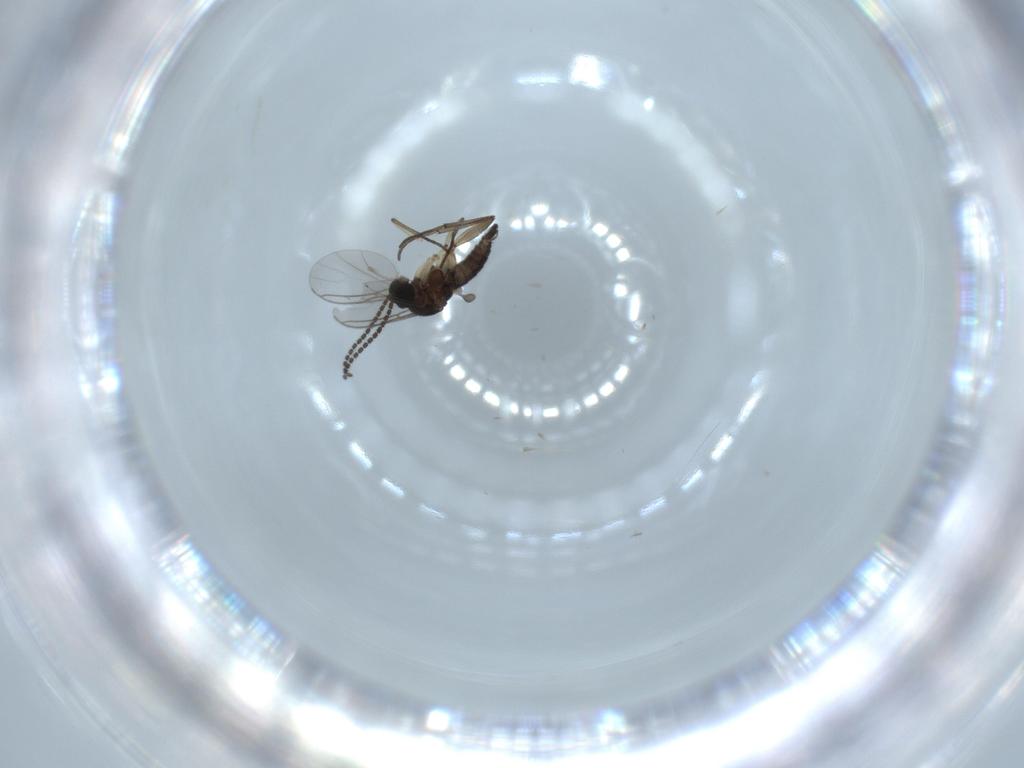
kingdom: Animalia
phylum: Arthropoda
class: Insecta
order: Diptera
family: Sciaridae
